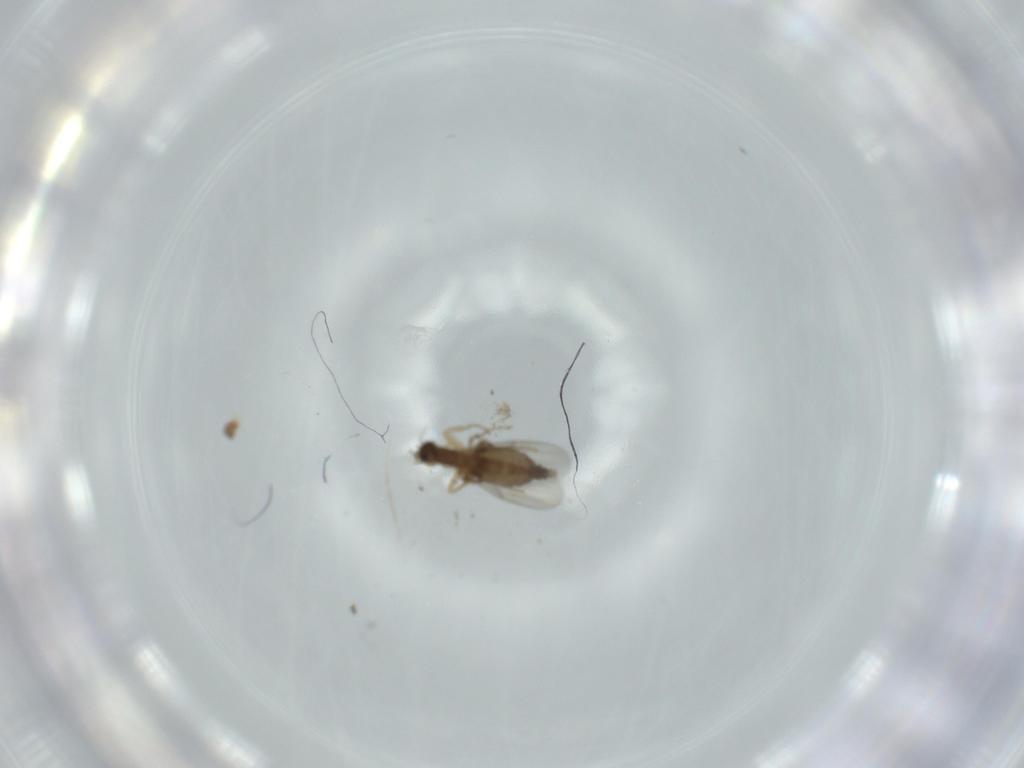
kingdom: Animalia
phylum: Arthropoda
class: Insecta
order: Diptera
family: Phoridae
